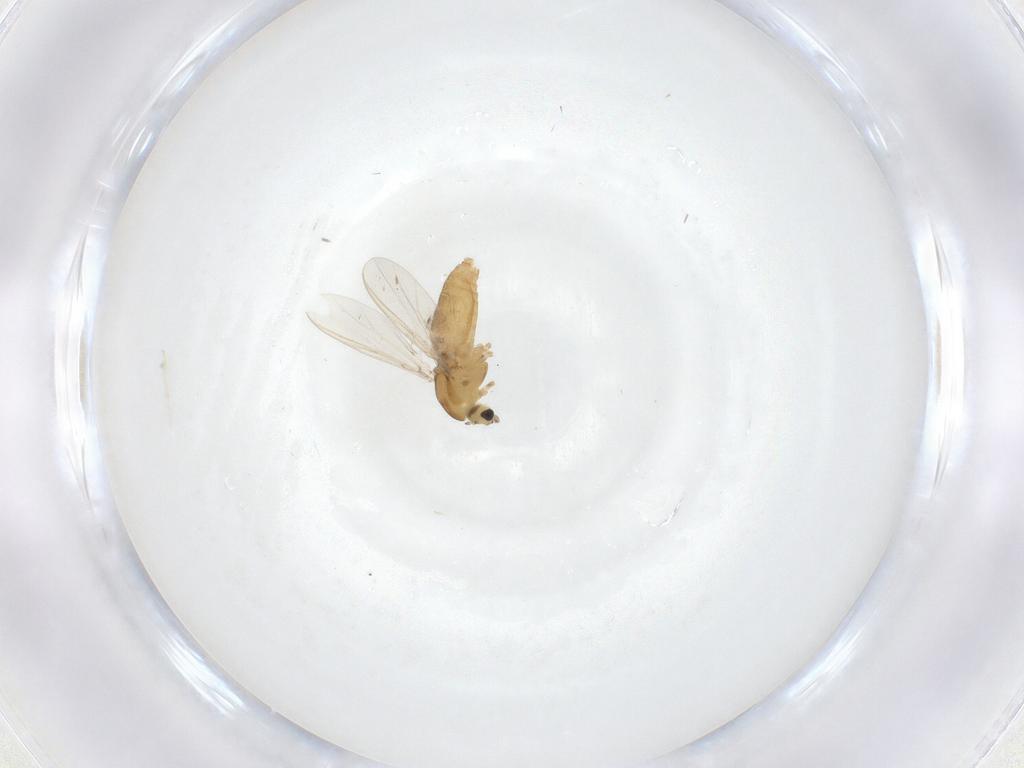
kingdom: Animalia
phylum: Arthropoda
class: Insecta
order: Diptera
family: Chironomidae
